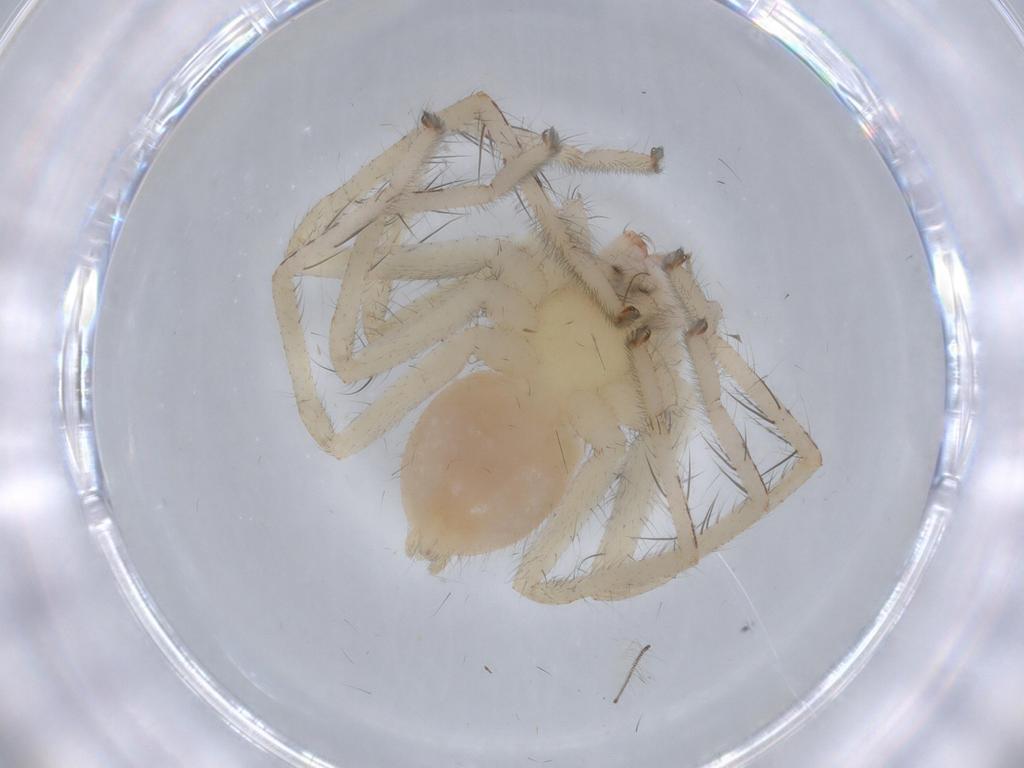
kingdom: Animalia
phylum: Arthropoda
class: Arachnida
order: Araneae
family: Sparassidae
